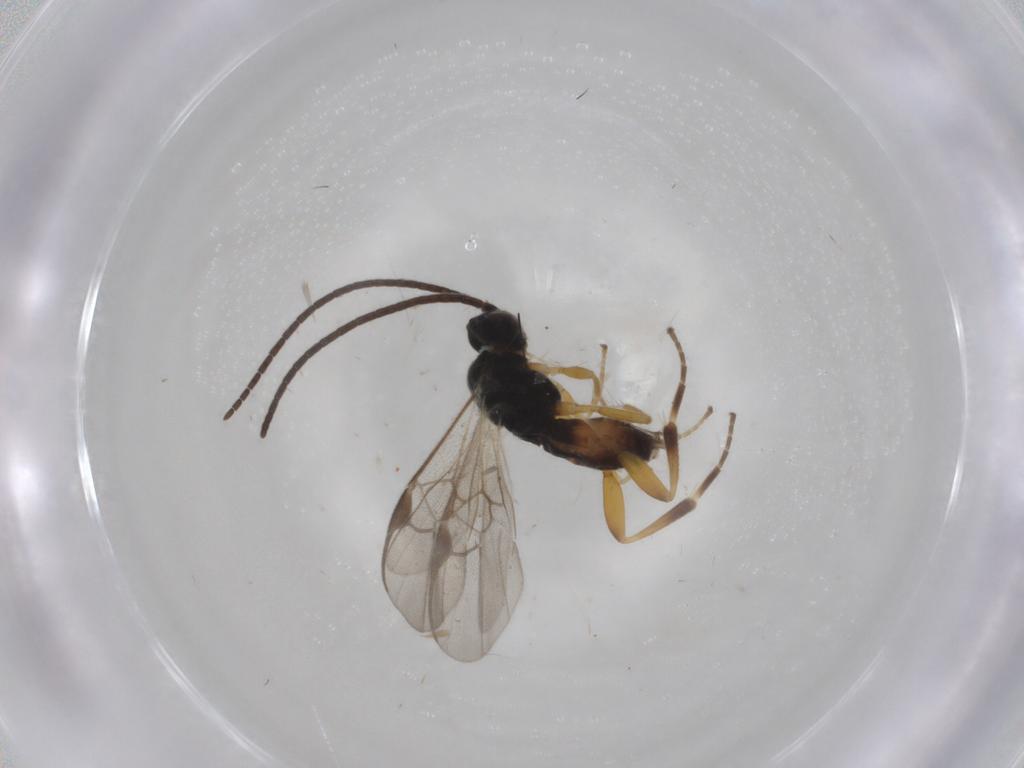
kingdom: Animalia
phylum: Arthropoda
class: Insecta
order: Hymenoptera
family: Braconidae
